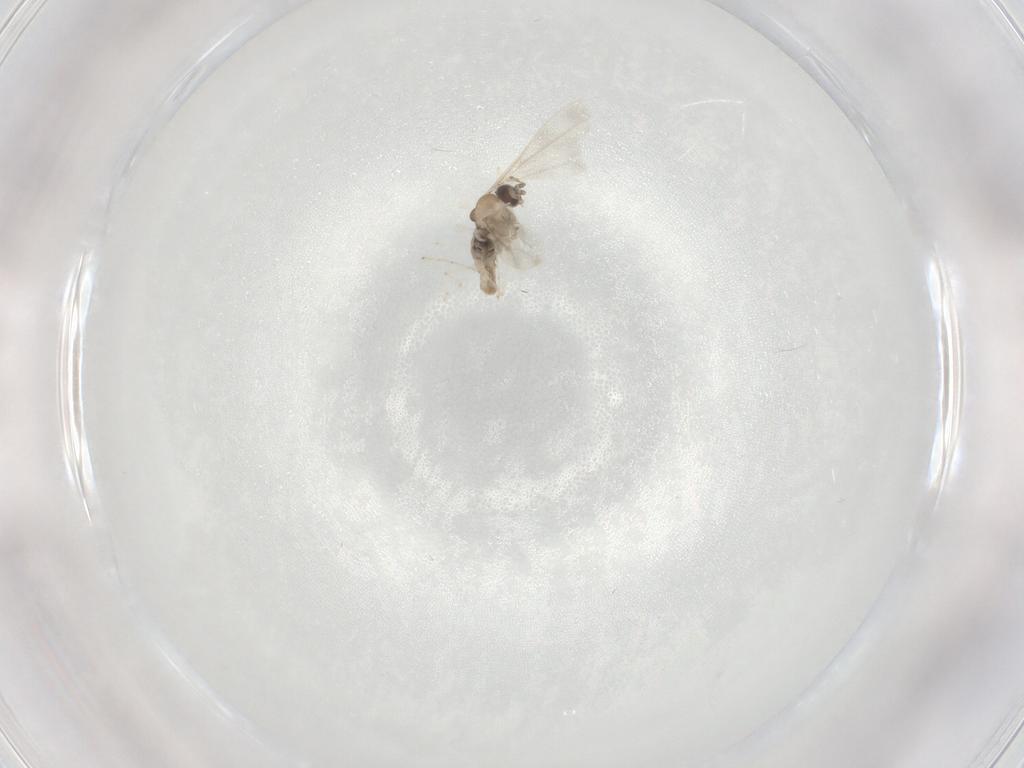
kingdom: Animalia
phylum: Arthropoda
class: Insecta
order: Diptera
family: Cecidomyiidae
